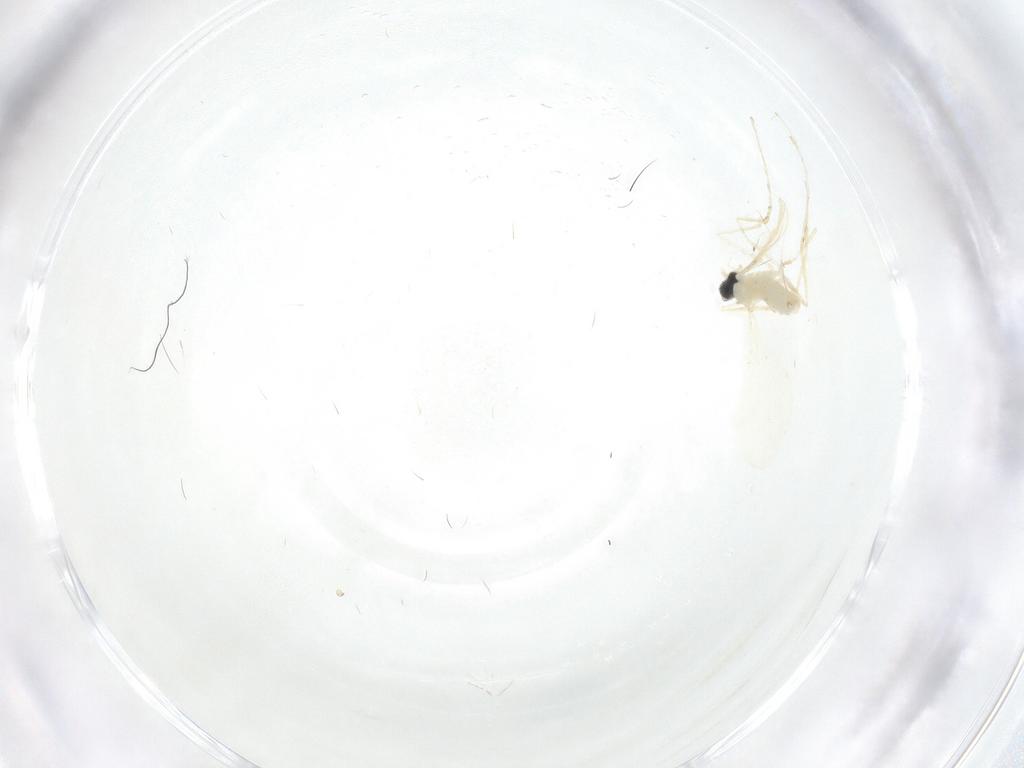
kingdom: Animalia
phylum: Arthropoda
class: Insecta
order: Diptera
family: Cecidomyiidae
